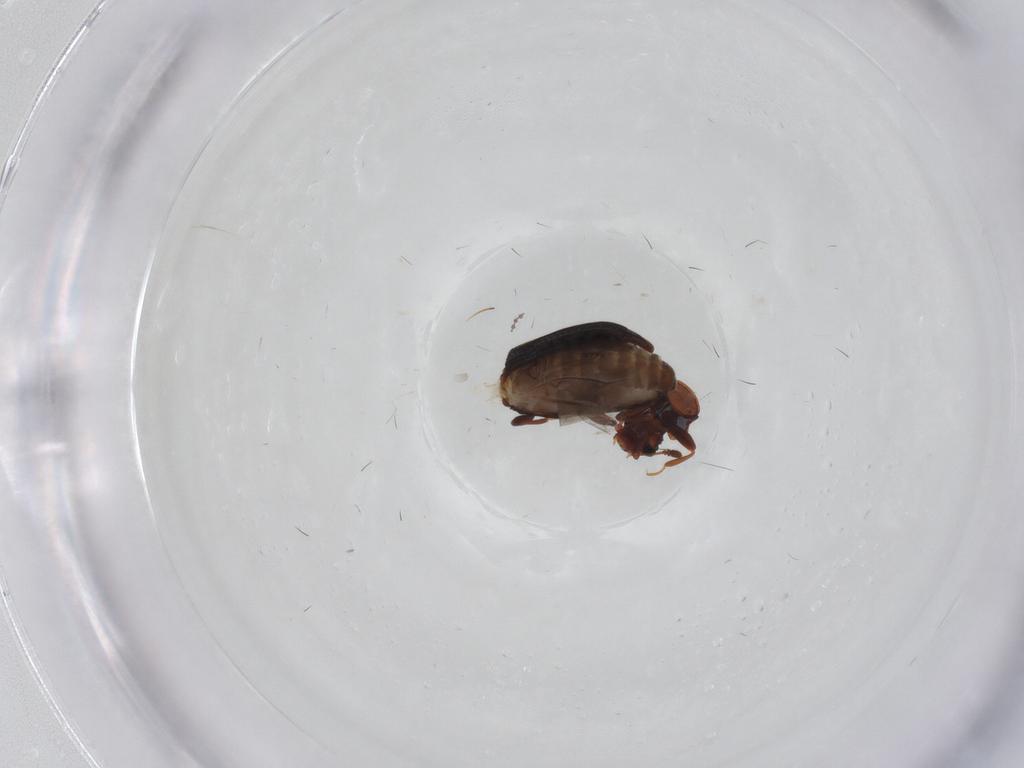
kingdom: Animalia
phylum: Arthropoda
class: Insecta
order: Coleoptera
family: Latridiidae
